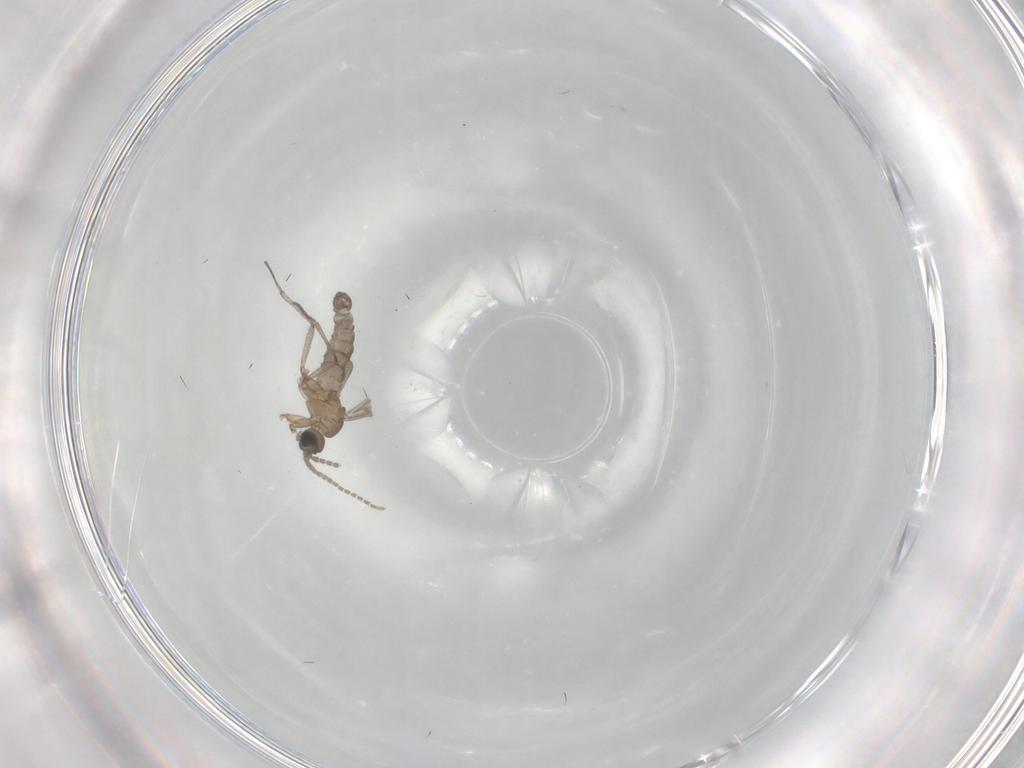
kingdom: Animalia
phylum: Arthropoda
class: Insecta
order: Diptera
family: Sciaridae
